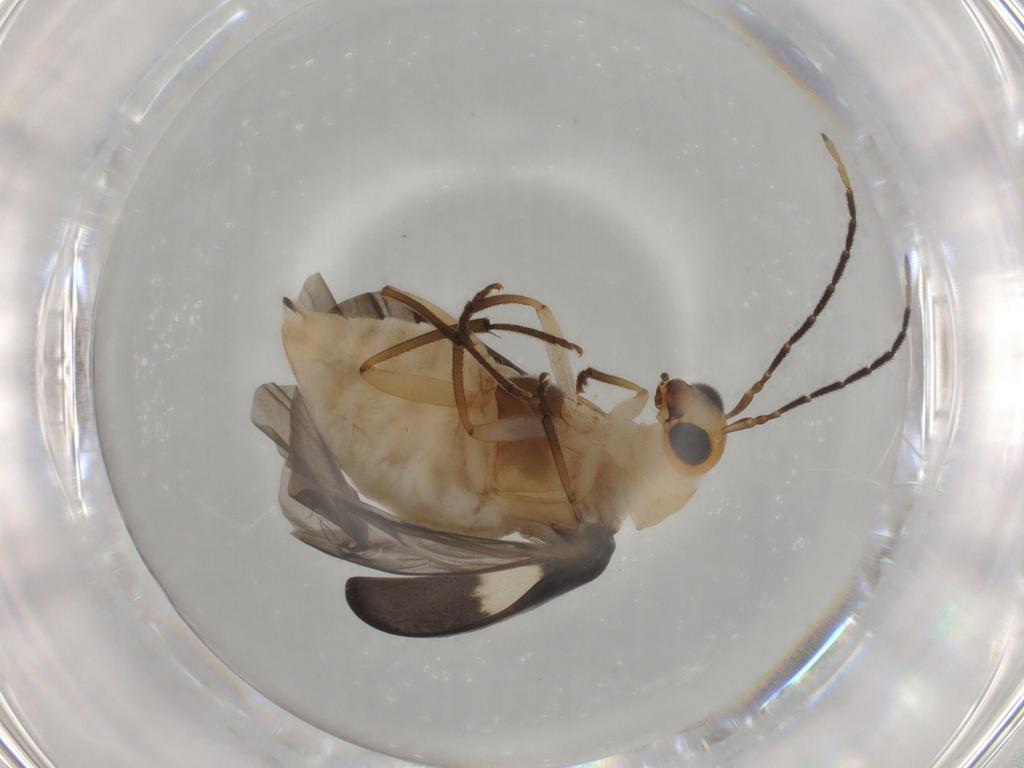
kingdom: Animalia
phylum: Arthropoda
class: Insecta
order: Coleoptera
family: Chrysomelidae
